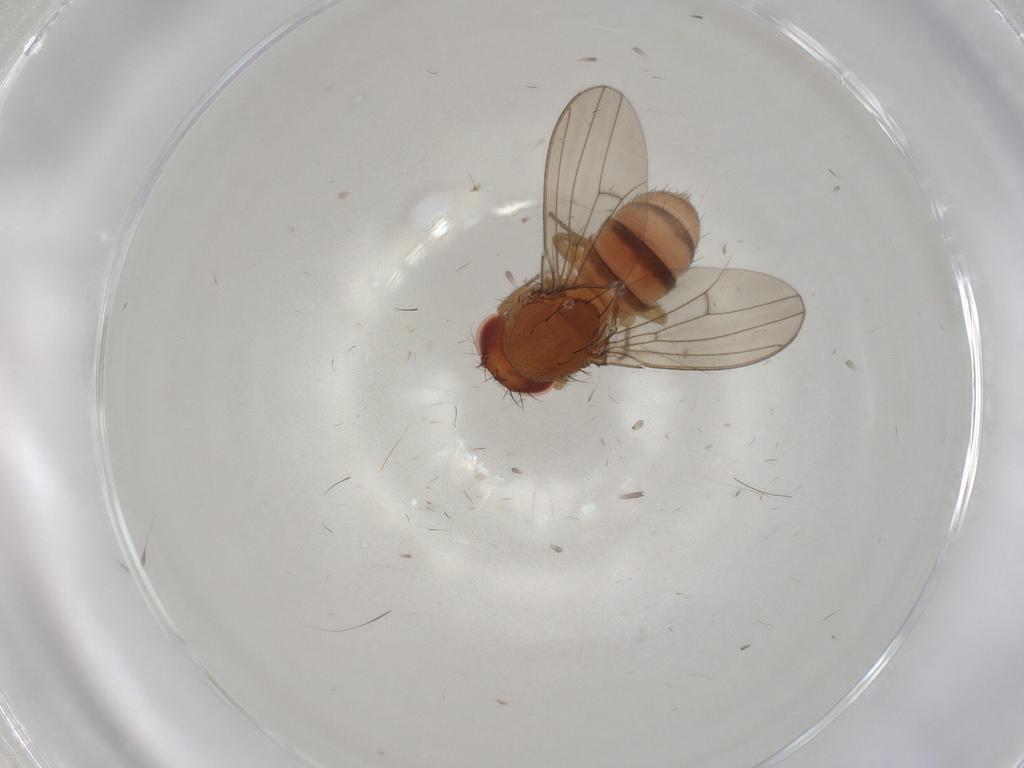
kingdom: Animalia
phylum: Arthropoda
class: Insecta
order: Diptera
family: Drosophilidae
